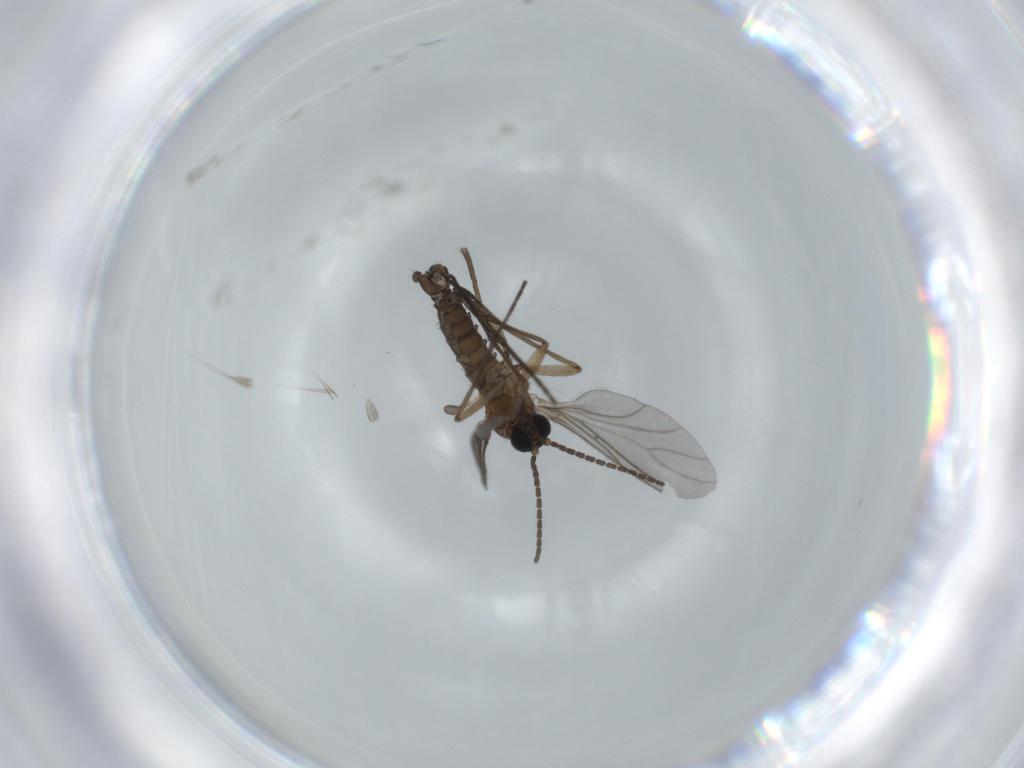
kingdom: Animalia
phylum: Arthropoda
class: Insecta
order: Diptera
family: Sciaridae
